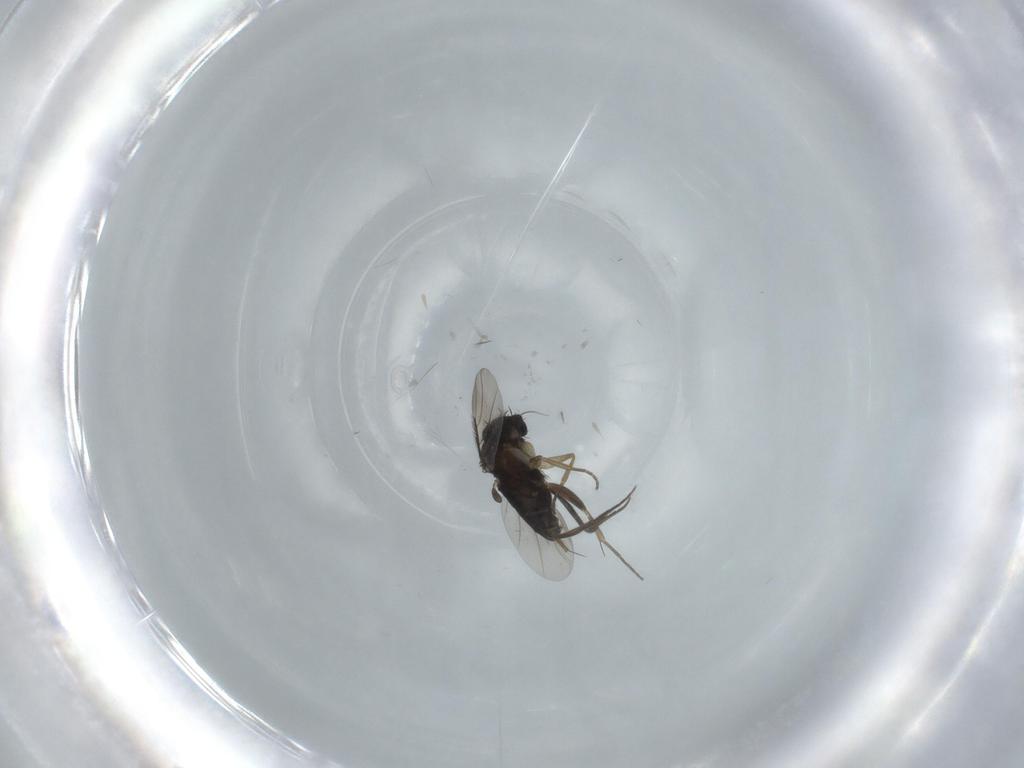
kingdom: Animalia
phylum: Arthropoda
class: Insecta
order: Diptera
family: Phoridae
